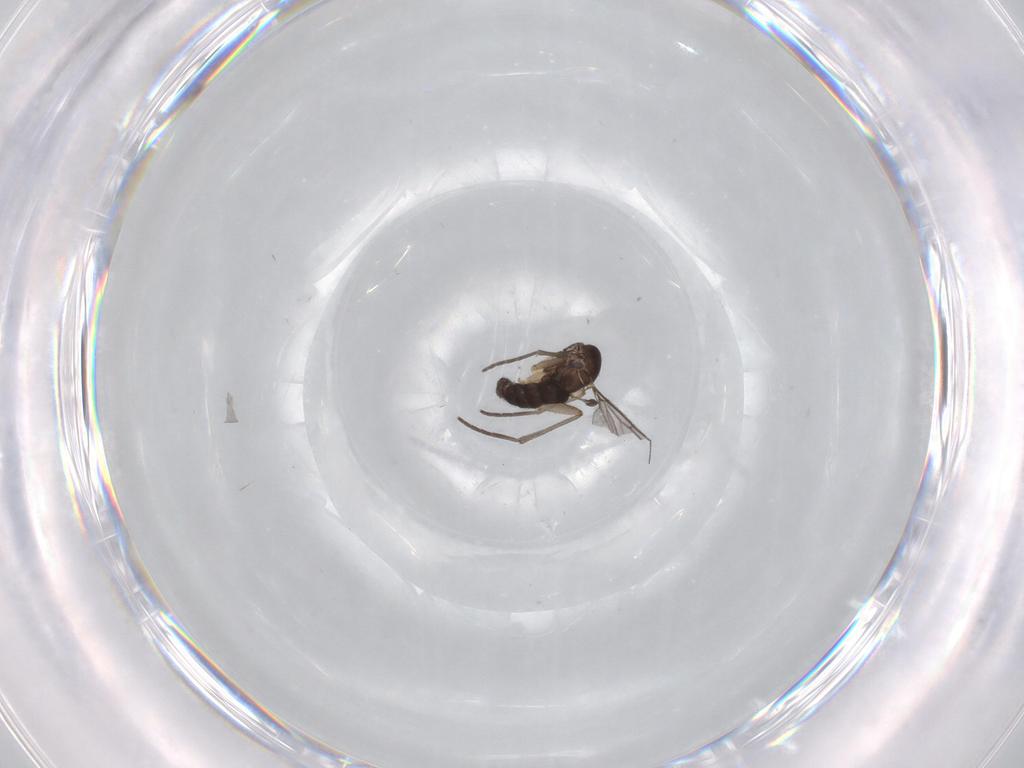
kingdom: Animalia
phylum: Arthropoda
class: Insecta
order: Diptera
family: Sciaridae
